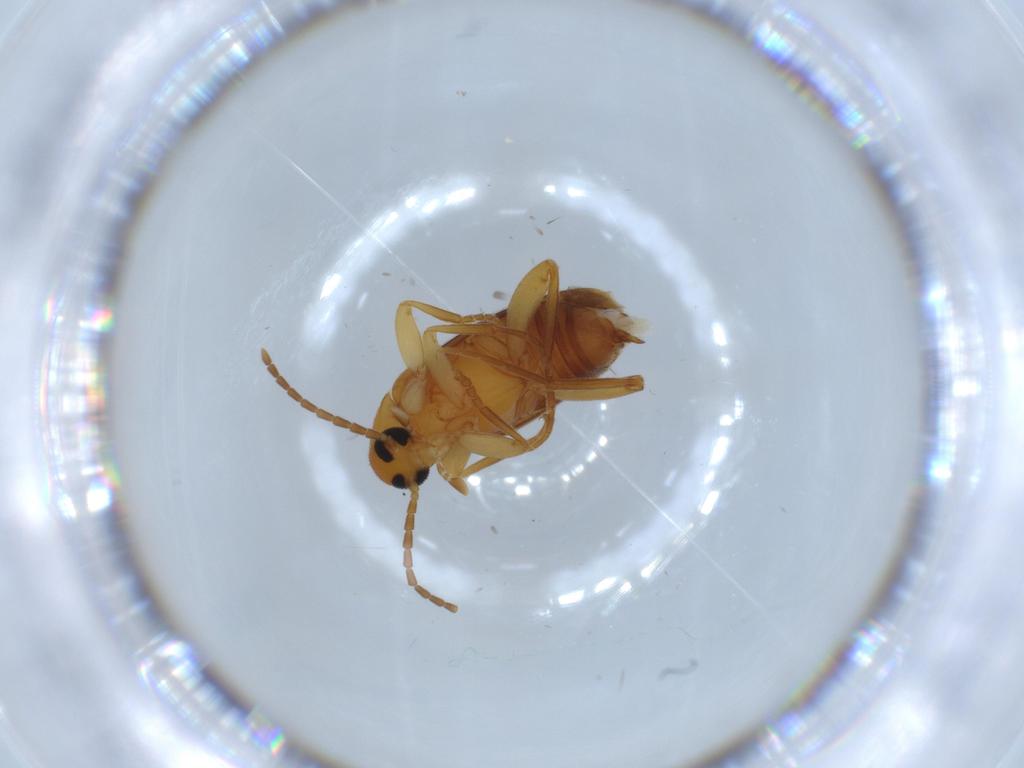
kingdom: Animalia
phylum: Arthropoda
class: Insecta
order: Coleoptera
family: Scraptiidae
